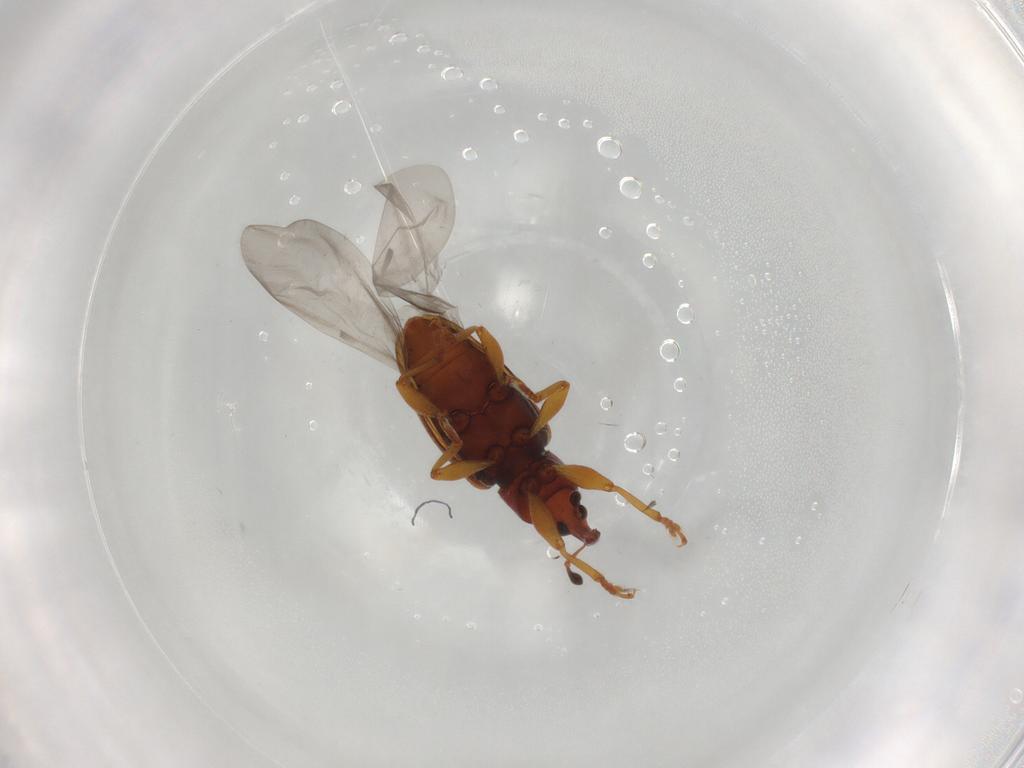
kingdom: Animalia
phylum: Arthropoda
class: Insecta
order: Coleoptera
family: Curculionidae
